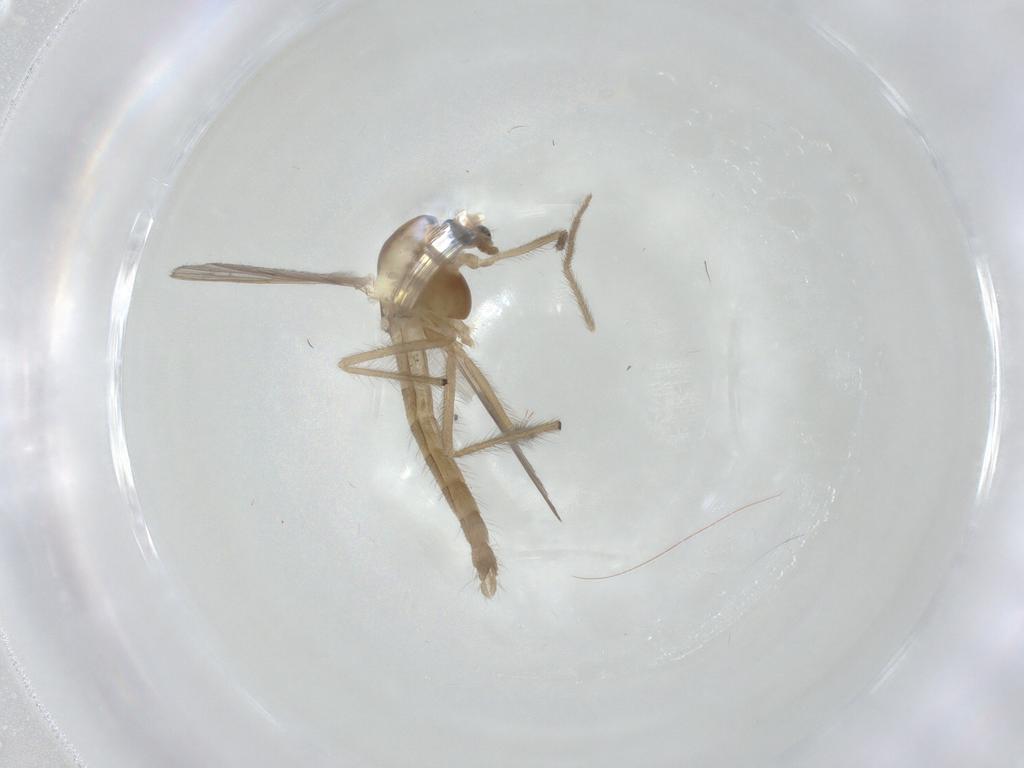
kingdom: Animalia
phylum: Arthropoda
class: Insecta
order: Diptera
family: Chironomidae
